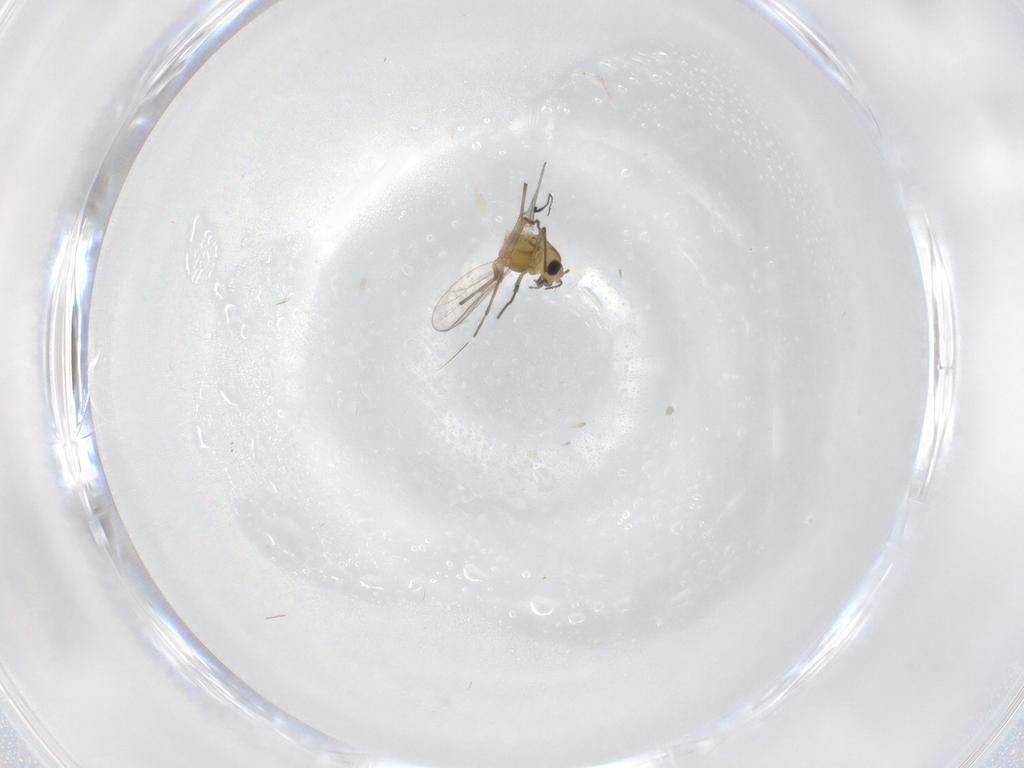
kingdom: Animalia
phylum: Arthropoda
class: Insecta
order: Diptera
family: Chironomidae
